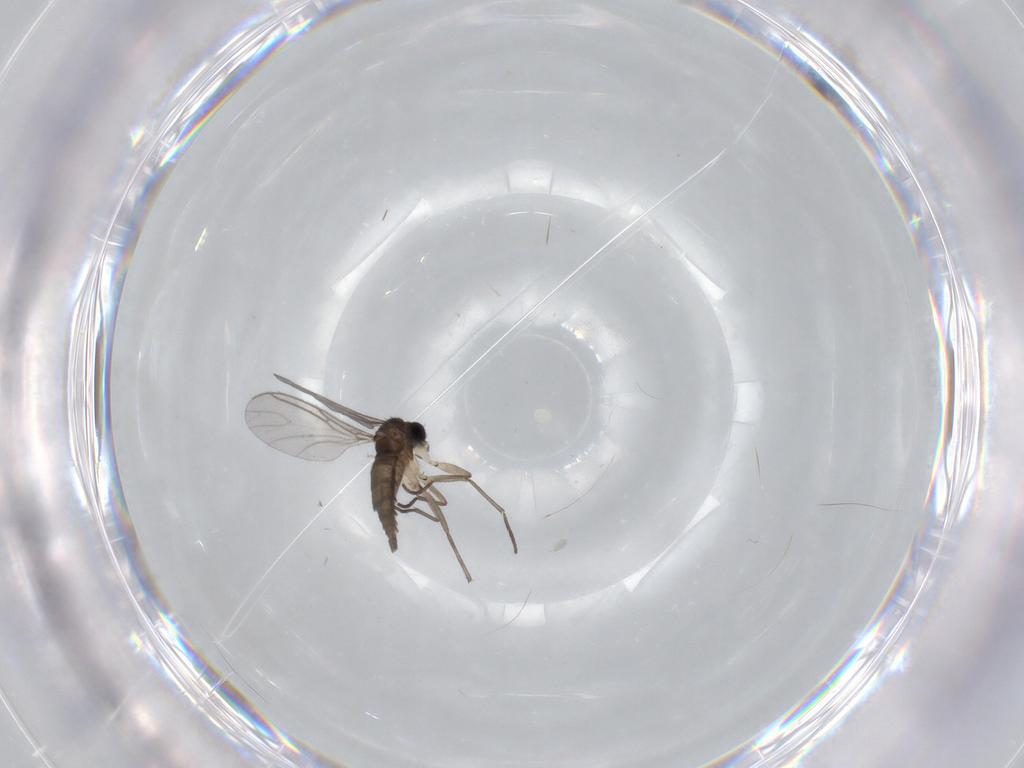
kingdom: Animalia
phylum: Arthropoda
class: Insecta
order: Diptera
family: Sciaridae
